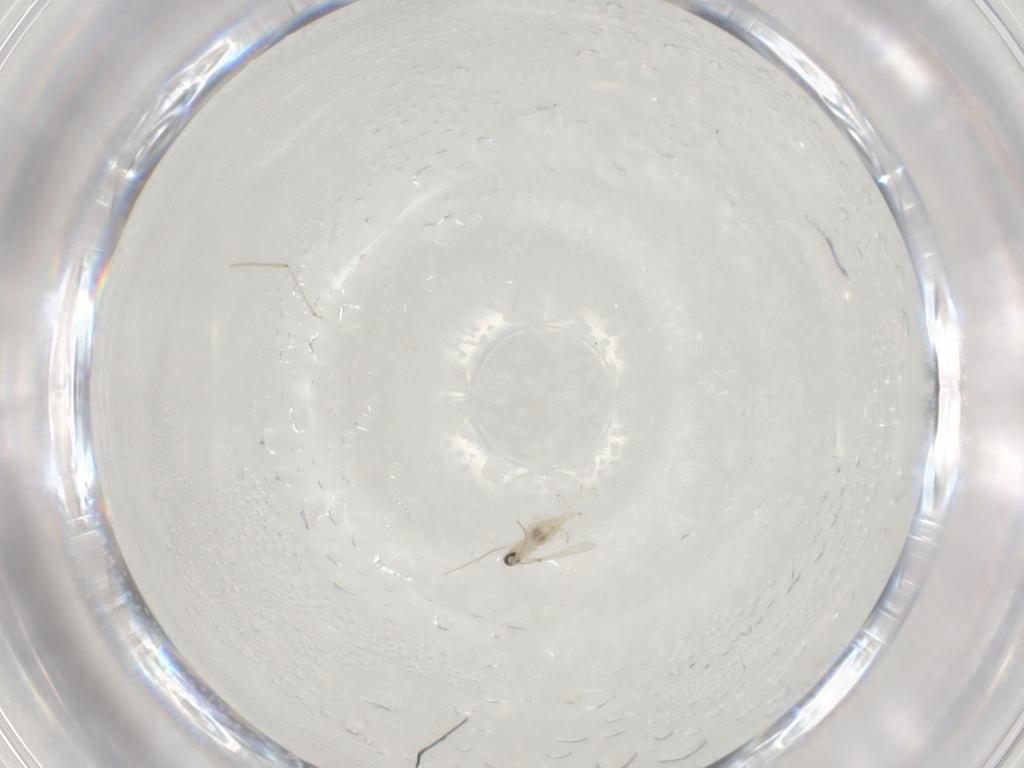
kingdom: Animalia
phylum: Arthropoda
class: Insecta
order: Diptera
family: Cecidomyiidae
